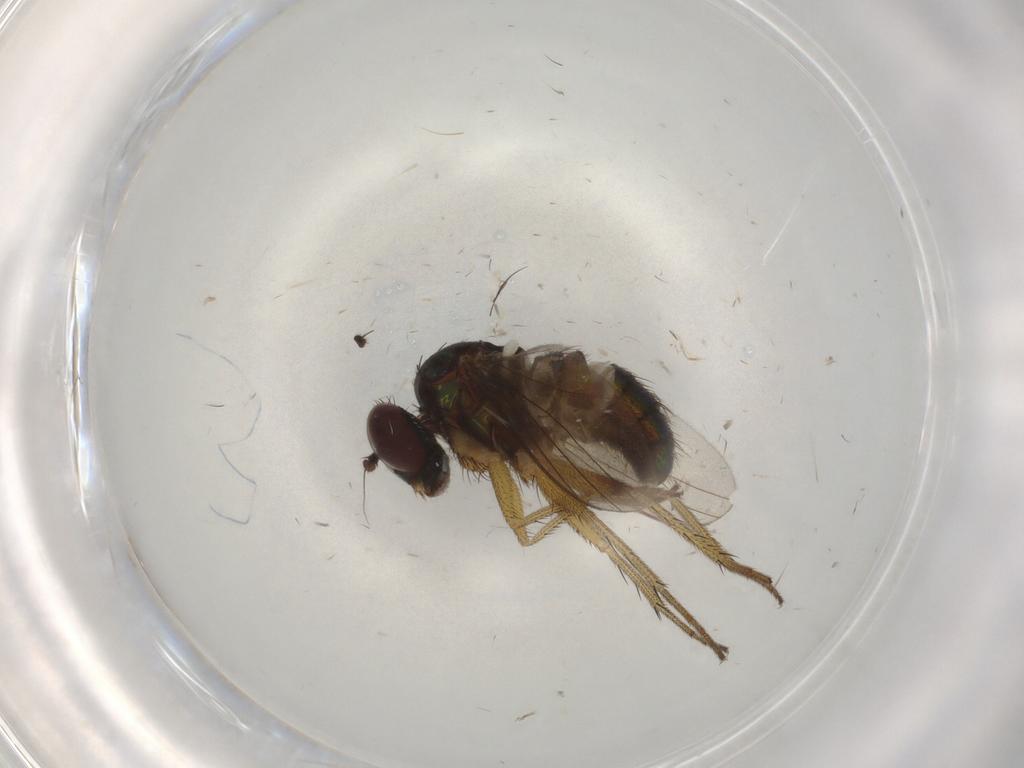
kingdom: Animalia
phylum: Arthropoda
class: Insecta
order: Diptera
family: Dolichopodidae
